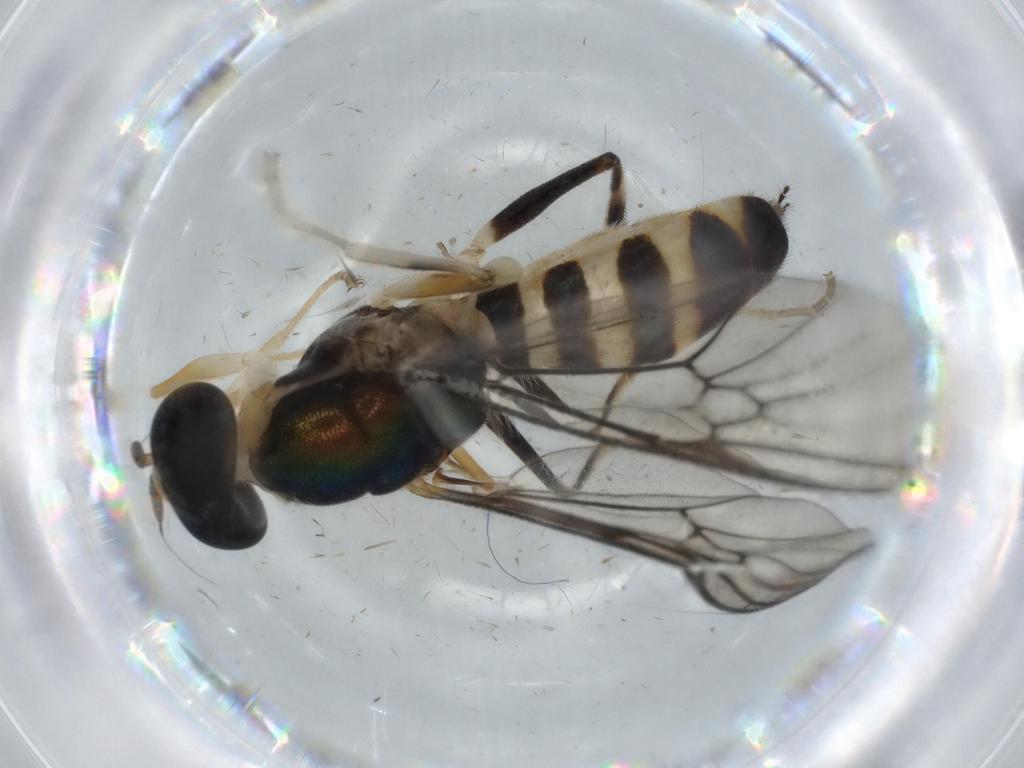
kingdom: Animalia
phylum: Arthropoda
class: Insecta
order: Diptera
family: Sciaridae
